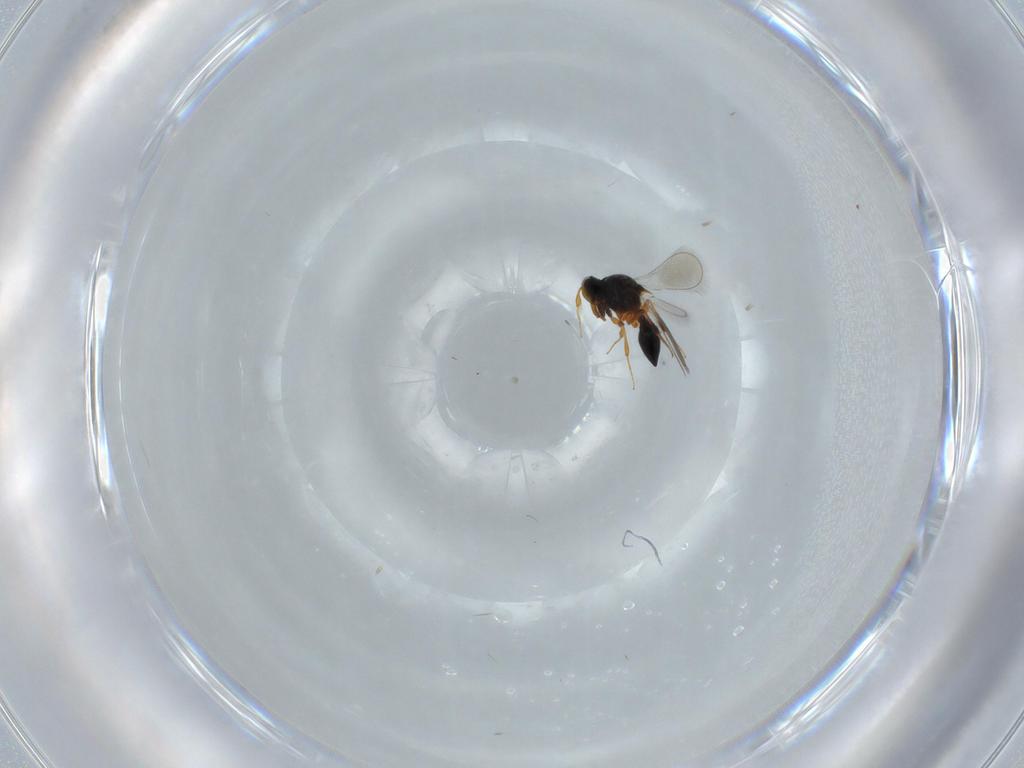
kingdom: Animalia
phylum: Arthropoda
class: Insecta
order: Hymenoptera
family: Platygastridae
